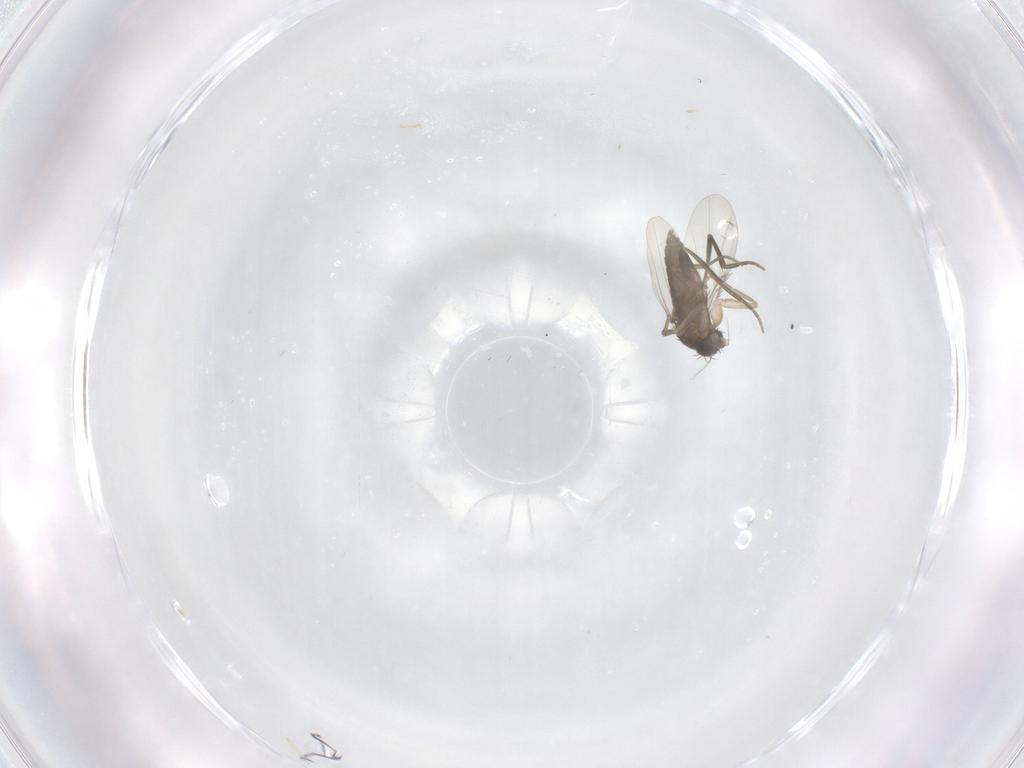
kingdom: Animalia
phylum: Arthropoda
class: Insecta
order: Diptera
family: Phoridae
